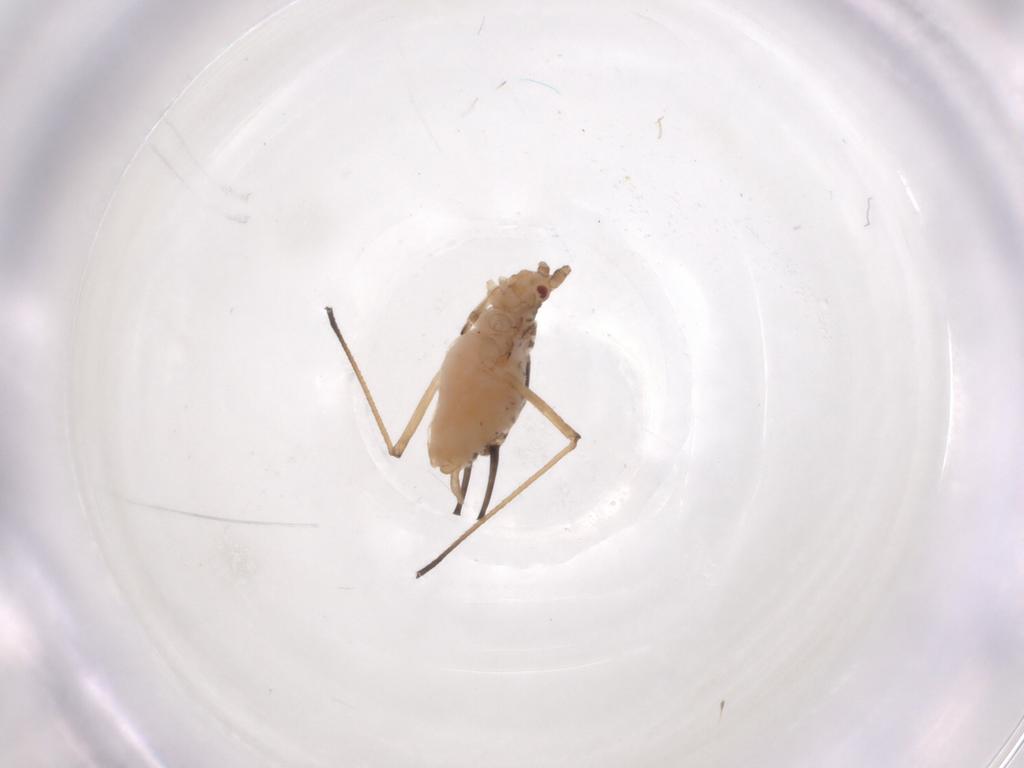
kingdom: Animalia
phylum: Arthropoda
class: Insecta
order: Hemiptera
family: Aphididae
